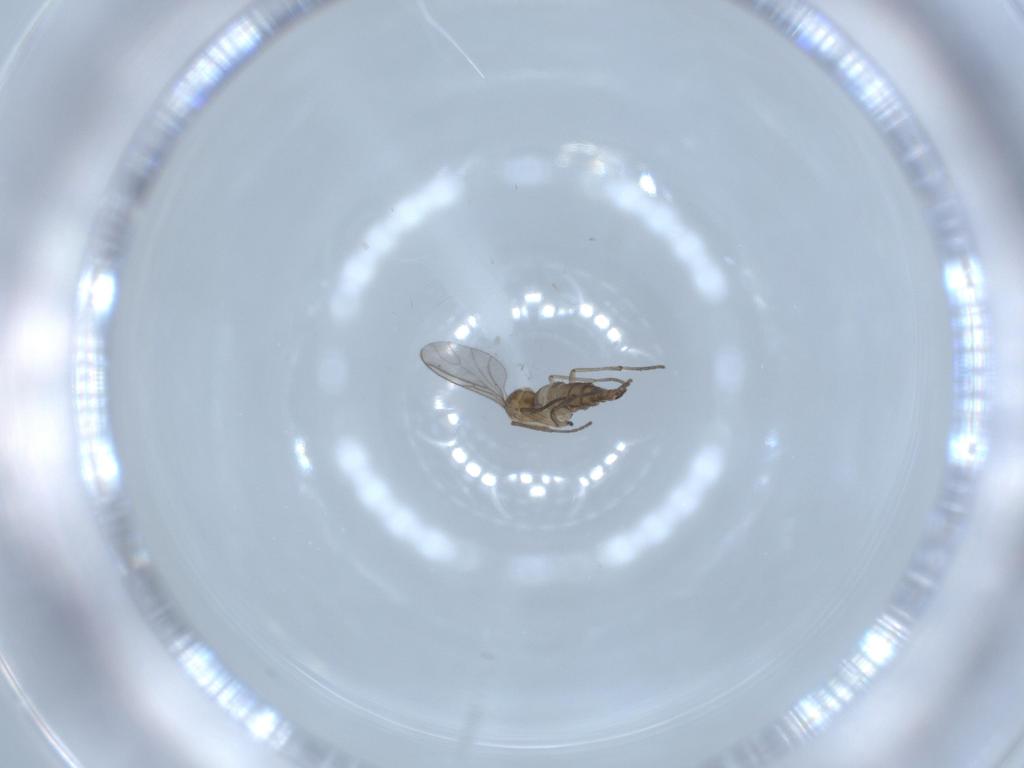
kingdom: Animalia
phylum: Arthropoda
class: Insecta
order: Diptera
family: Sciaridae
